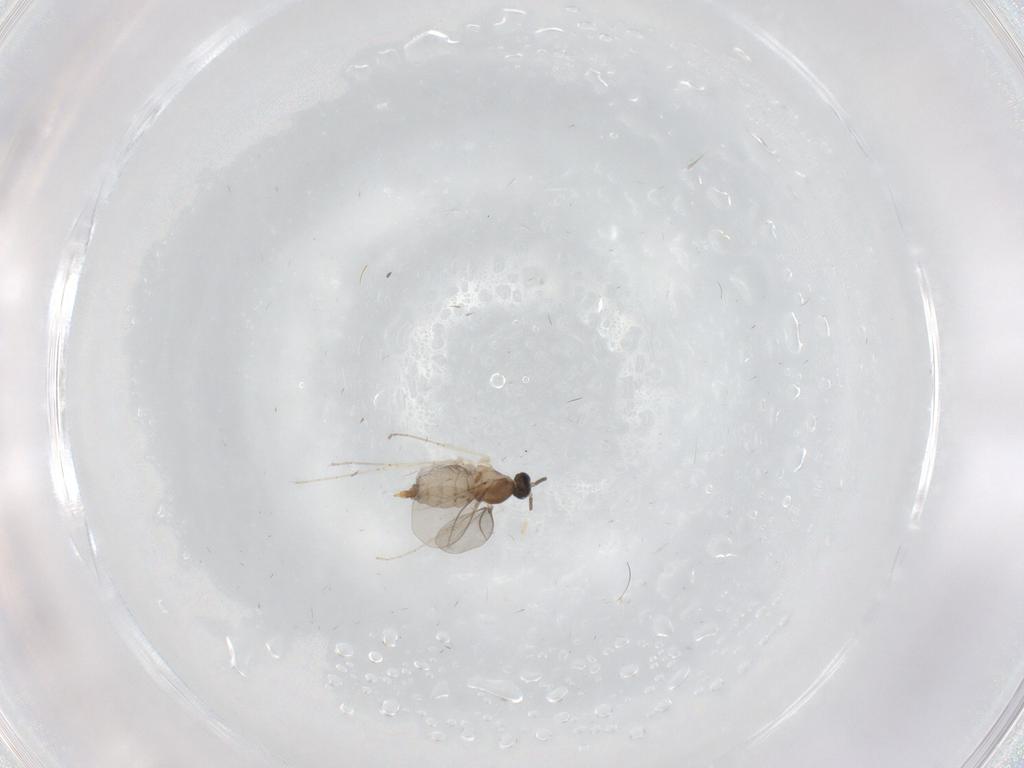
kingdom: Animalia
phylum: Arthropoda
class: Insecta
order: Diptera
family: Cecidomyiidae
